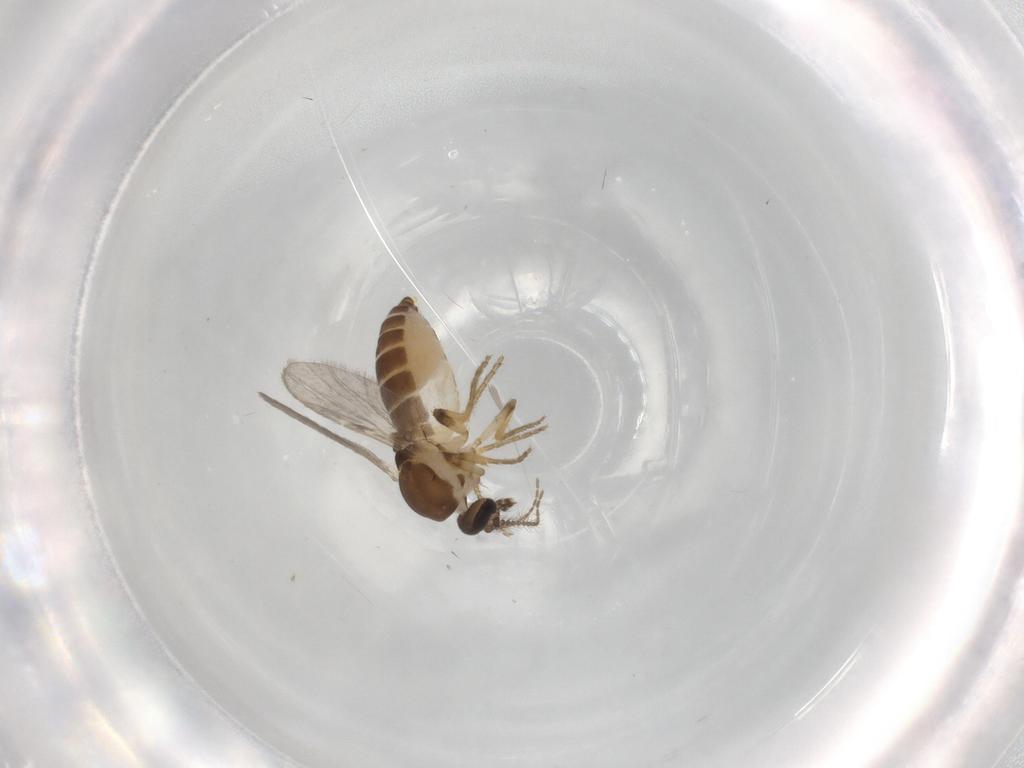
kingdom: Animalia
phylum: Arthropoda
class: Insecta
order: Diptera
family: Ceratopogonidae
